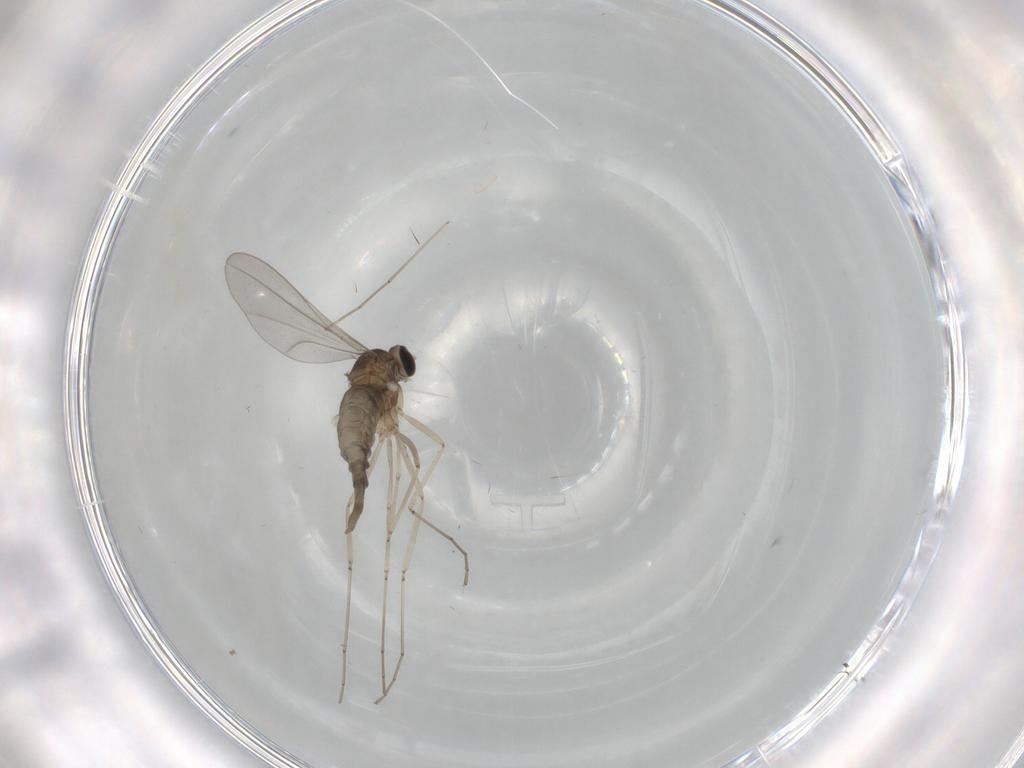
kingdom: Animalia
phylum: Arthropoda
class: Insecta
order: Diptera
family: Cecidomyiidae
